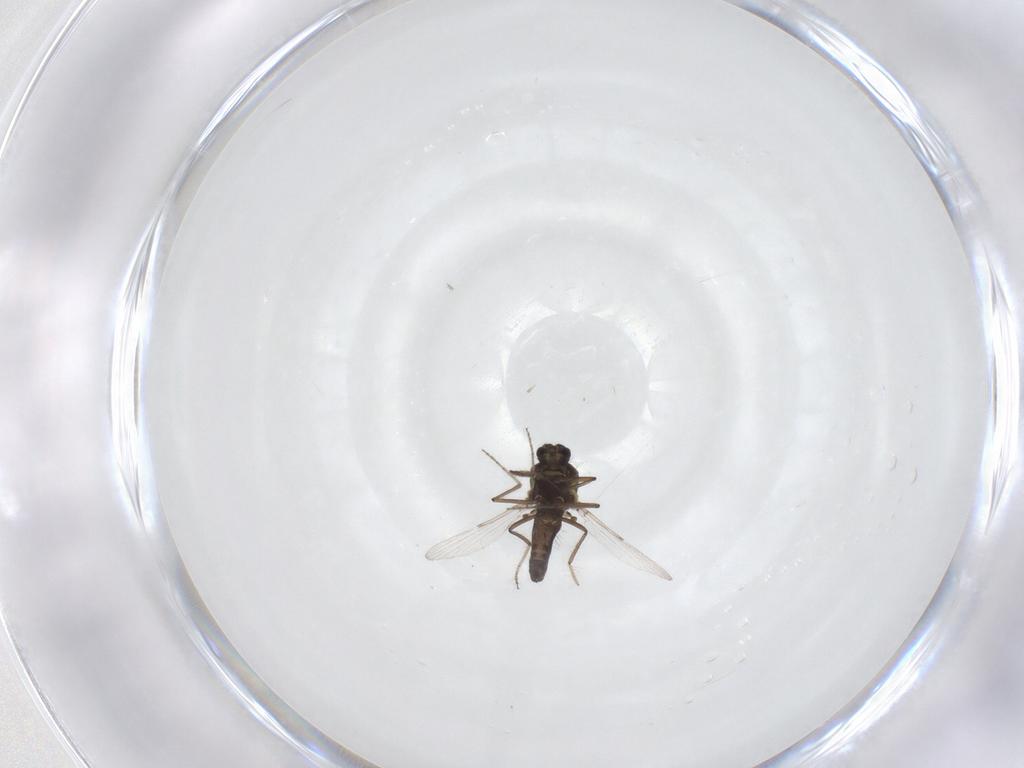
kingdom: Animalia
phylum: Arthropoda
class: Insecta
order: Diptera
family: Ceratopogonidae
